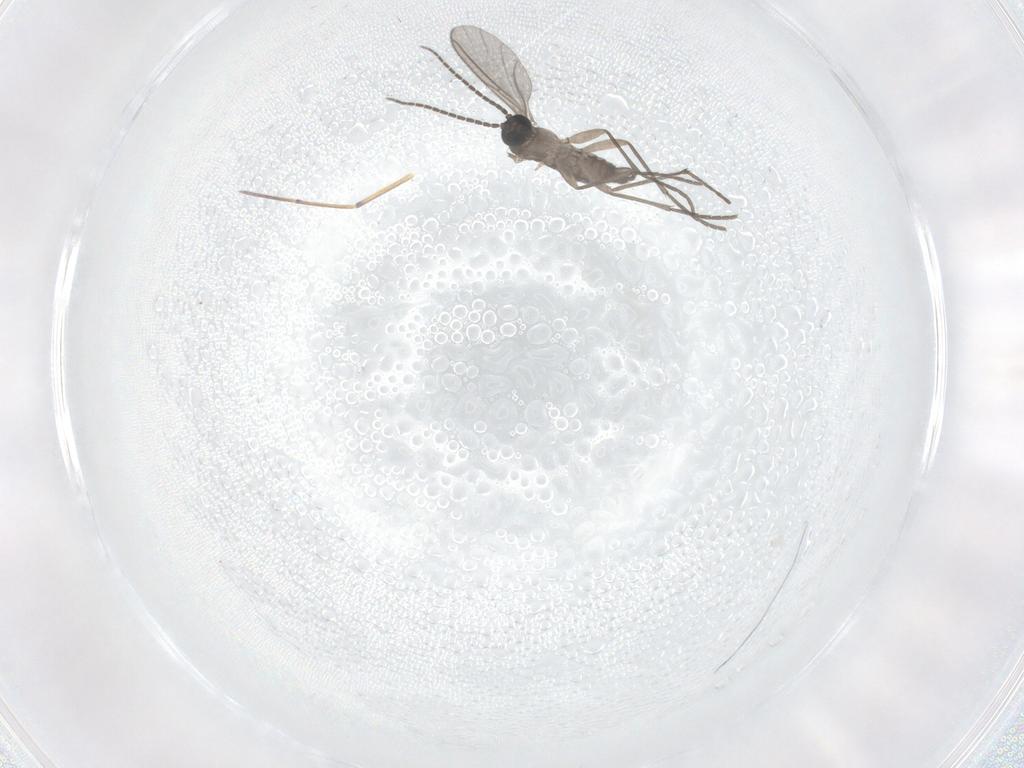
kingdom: Animalia
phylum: Arthropoda
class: Insecta
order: Diptera
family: Sciaridae
